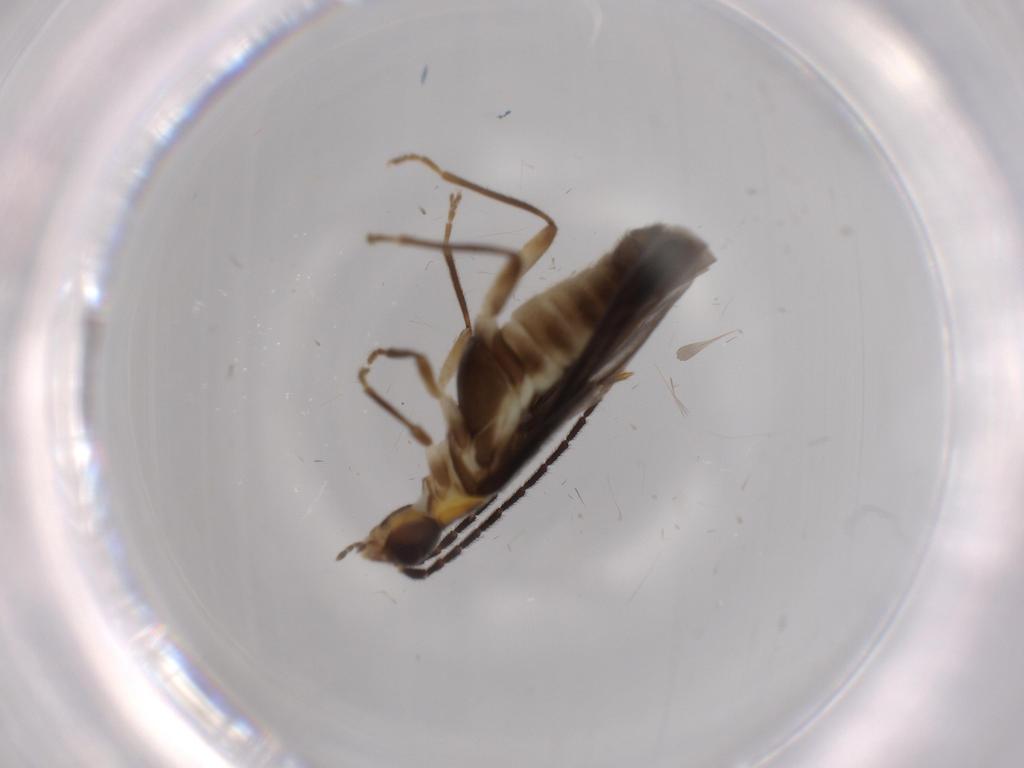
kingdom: Animalia
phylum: Arthropoda
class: Insecta
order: Coleoptera
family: Cantharidae
